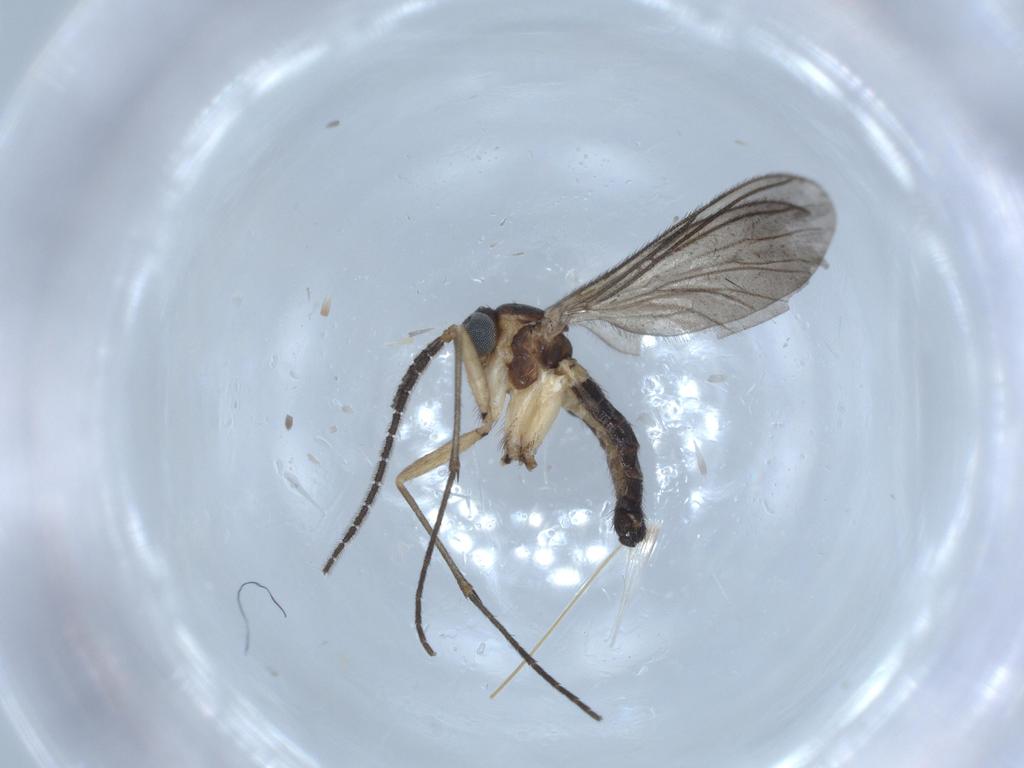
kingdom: Animalia
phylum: Arthropoda
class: Insecta
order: Diptera
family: Sciaridae
